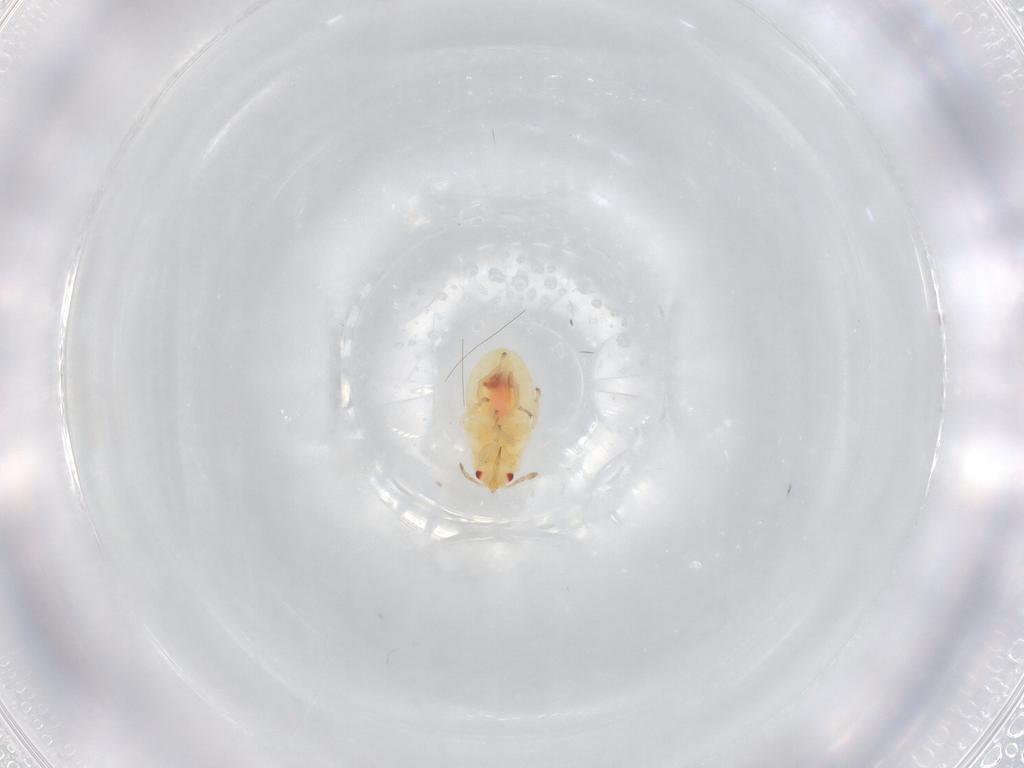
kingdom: Animalia
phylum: Arthropoda
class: Insecta
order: Hemiptera
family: Anthocoridae
